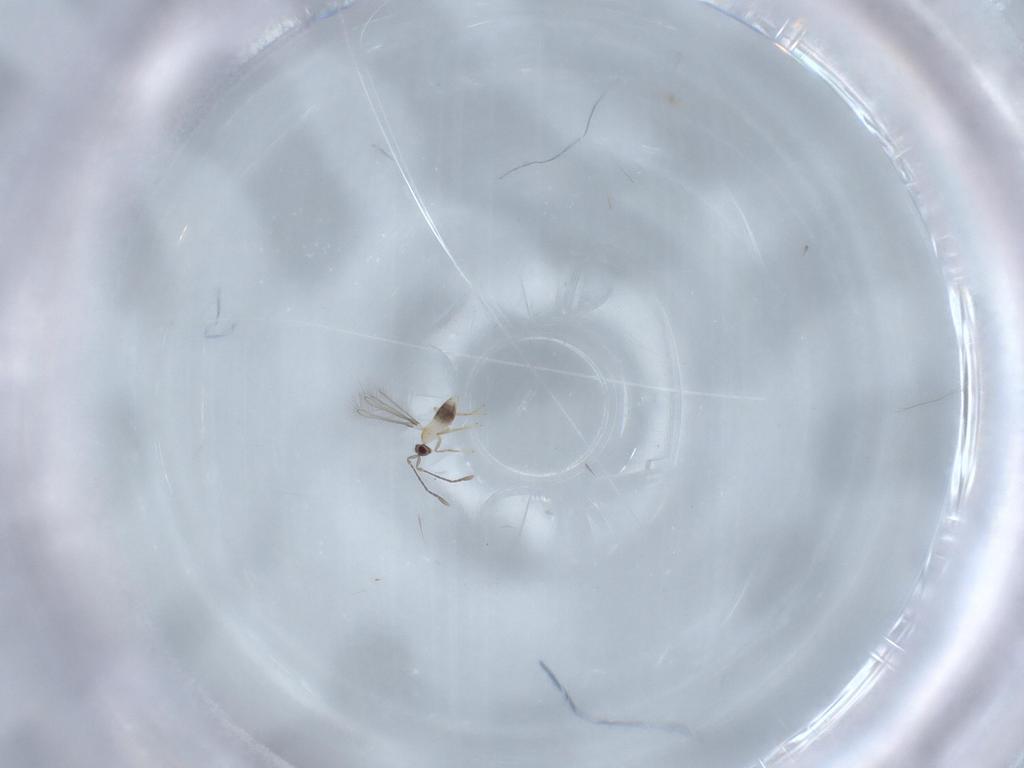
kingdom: Animalia
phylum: Arthropoda
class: Insecta
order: Hymenoptera
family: Mymaridae
